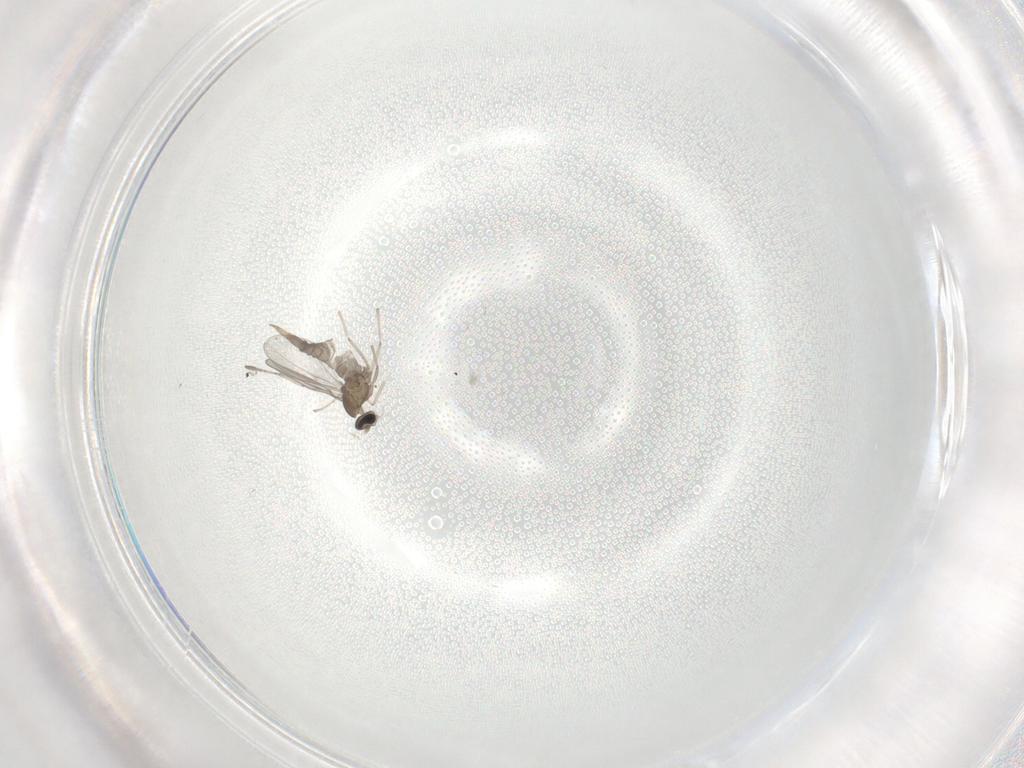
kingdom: Animalia
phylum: Arthropoda
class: Insecta
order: Diptera
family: Cecidomyiidae
